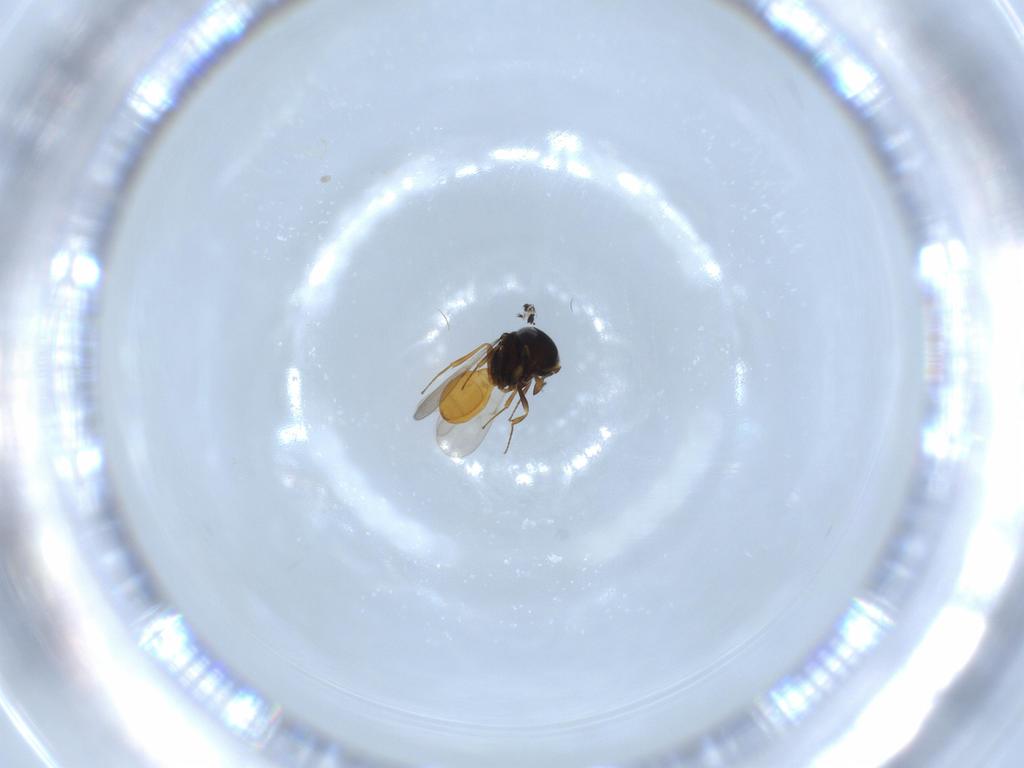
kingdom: Animalia
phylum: Arthropoda
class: Insecta
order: Hymenoptera
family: Scelionidae
